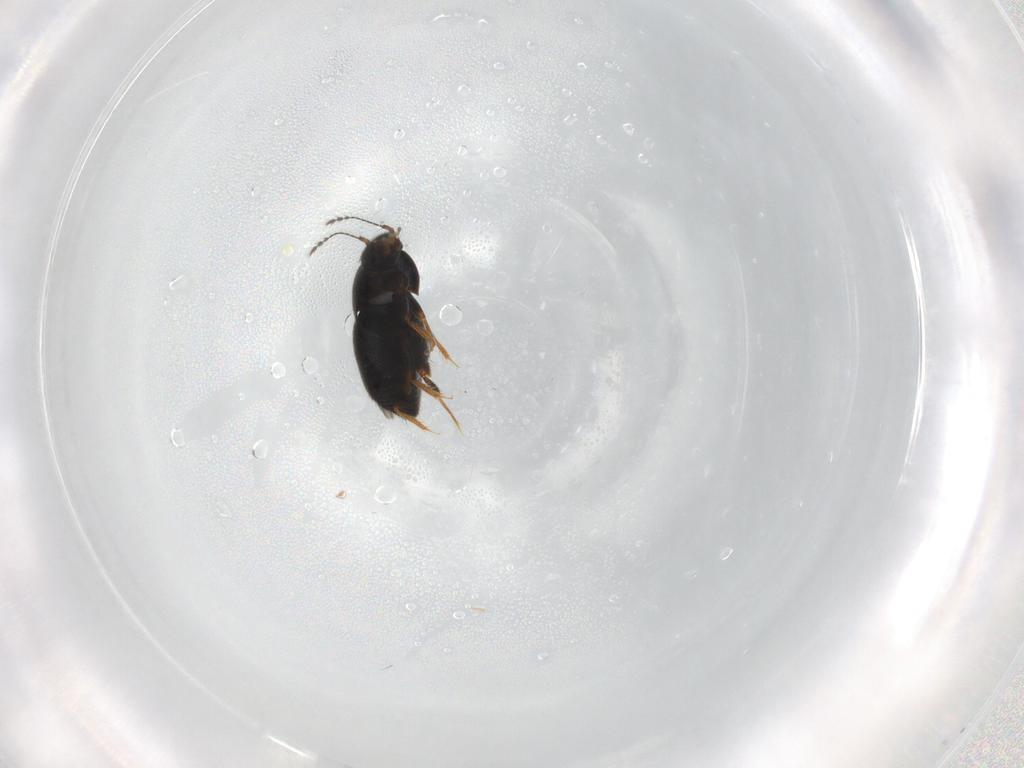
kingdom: Animalia
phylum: Arthropoda
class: Insecta
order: Coleoptera
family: Ptiliidae
